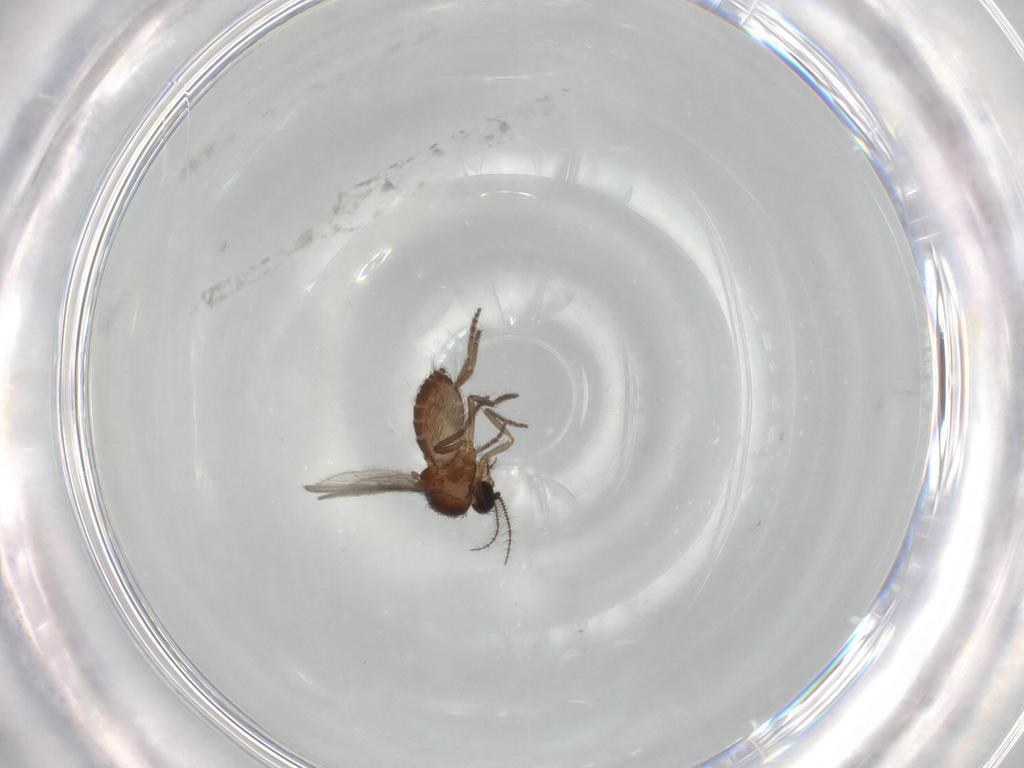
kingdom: Animalia
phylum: Arthropoda
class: Insecta
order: Diptera
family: Ceratopogonidae
